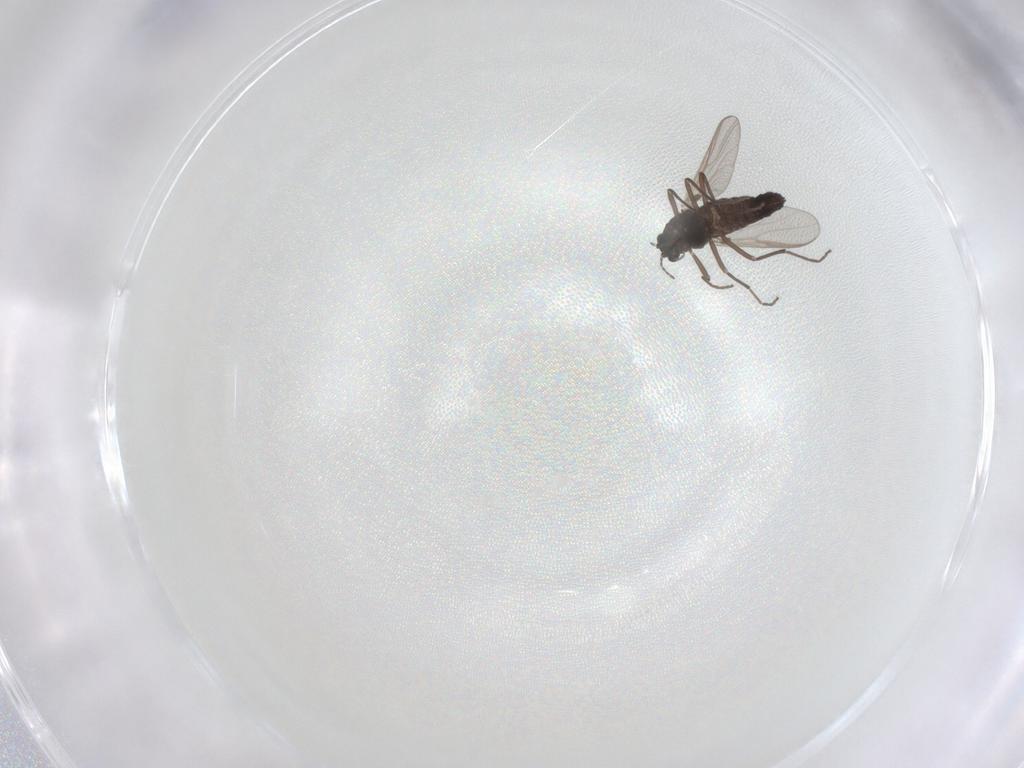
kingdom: Animalia
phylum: Arthropoda
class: Insecta
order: Diptera
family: Chironomidae
